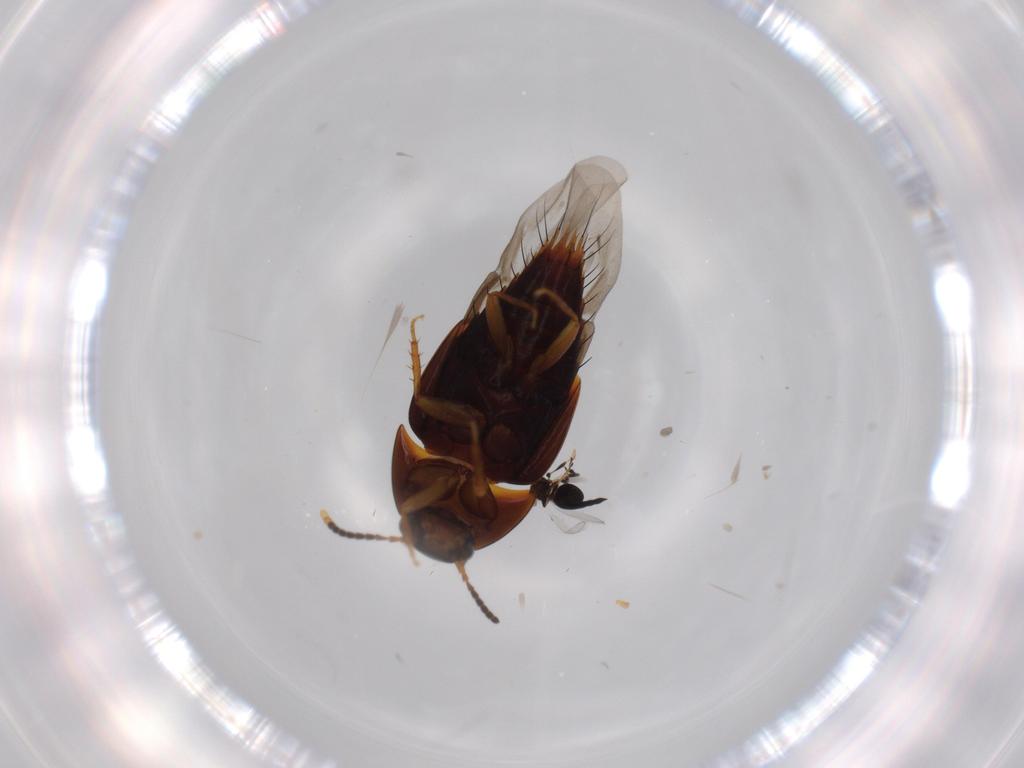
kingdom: Animalia
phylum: Arthropoda
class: Insecta
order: Coleoptera
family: Staphylinidae
